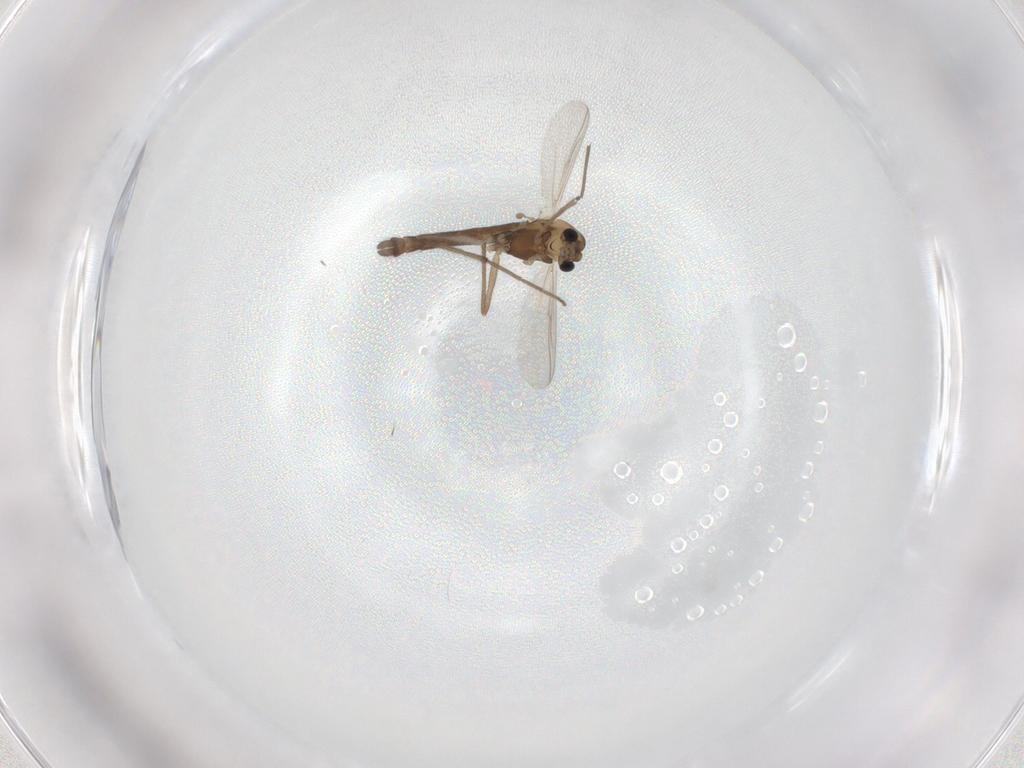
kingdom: Animalia
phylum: Arthropoda
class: Insecta
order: Diptera
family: Chironomidae
